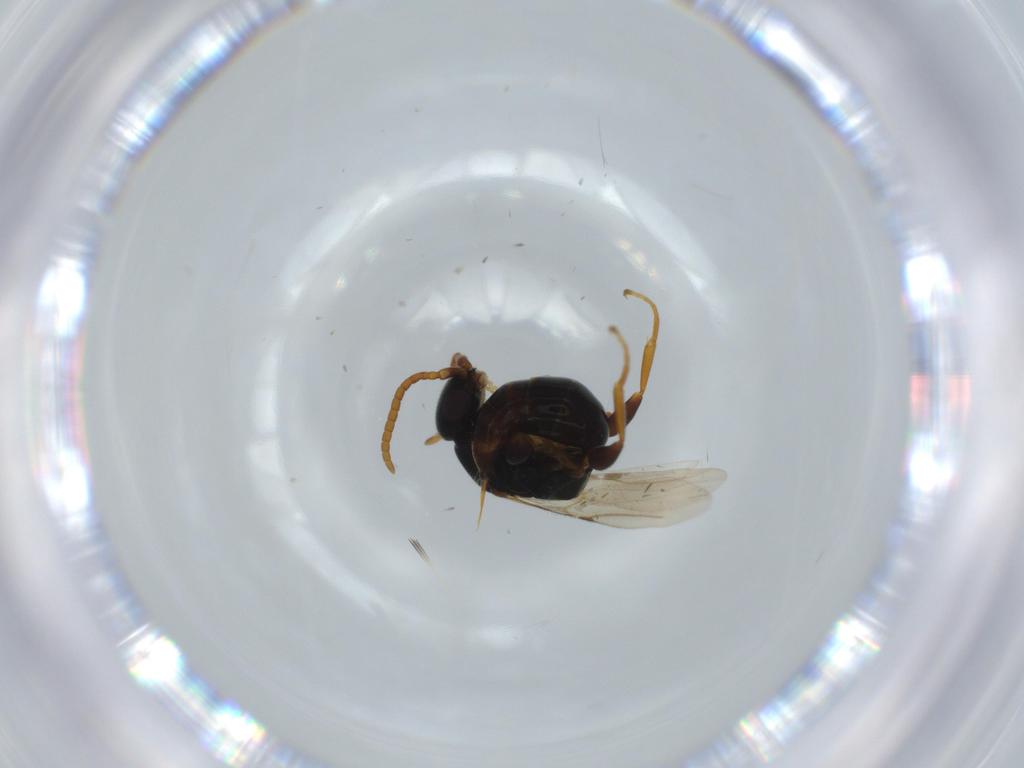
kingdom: Animalia
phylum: Arthropoda
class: Insecta
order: Hymenoptera
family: Bethylidae
